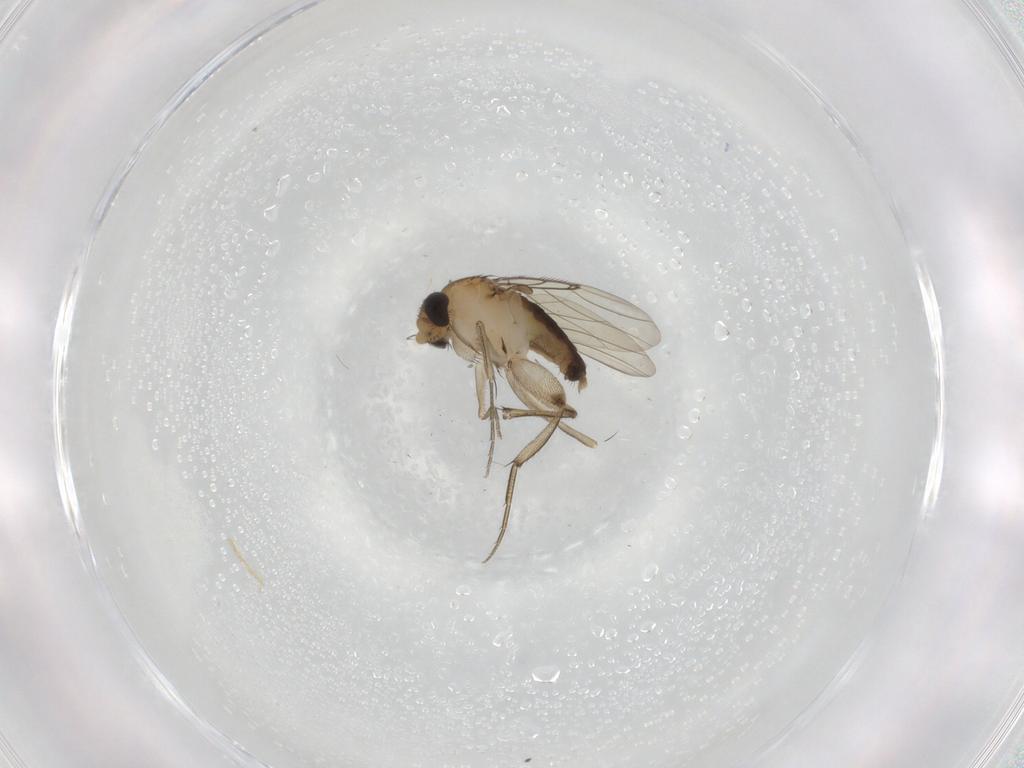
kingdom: Animalia
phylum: Arthropoda
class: Insecta
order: Diptera
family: Phoridae
